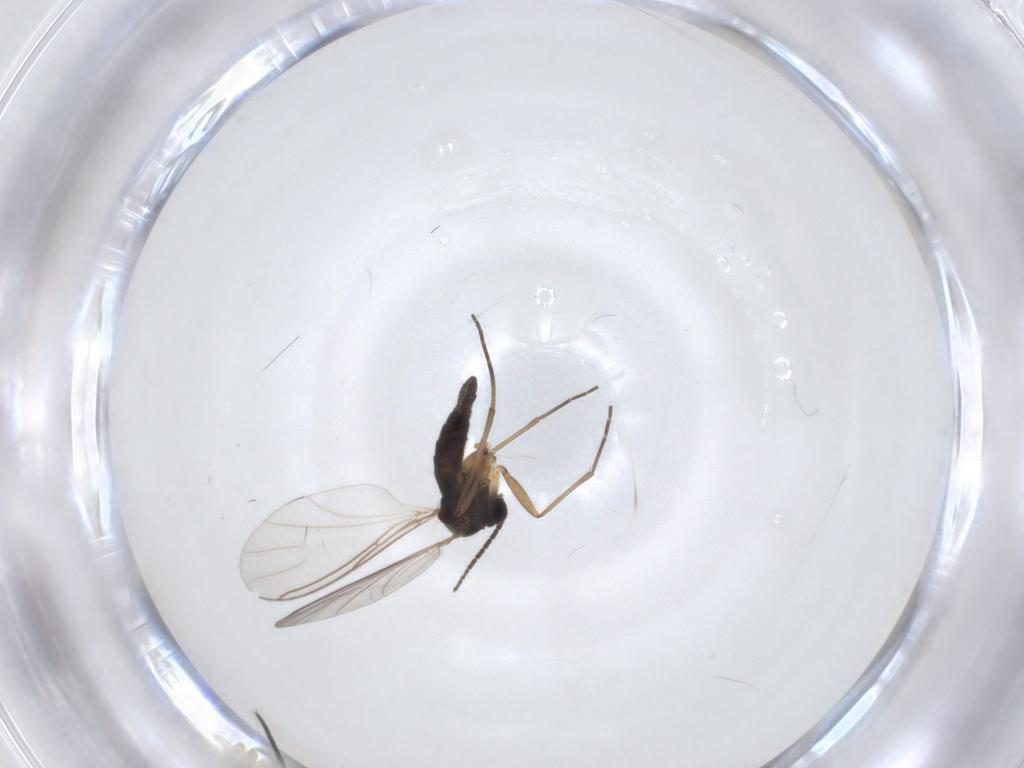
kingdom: Animalia
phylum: Arthropoda
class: Insecta
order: Diptera
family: Sciaridae
